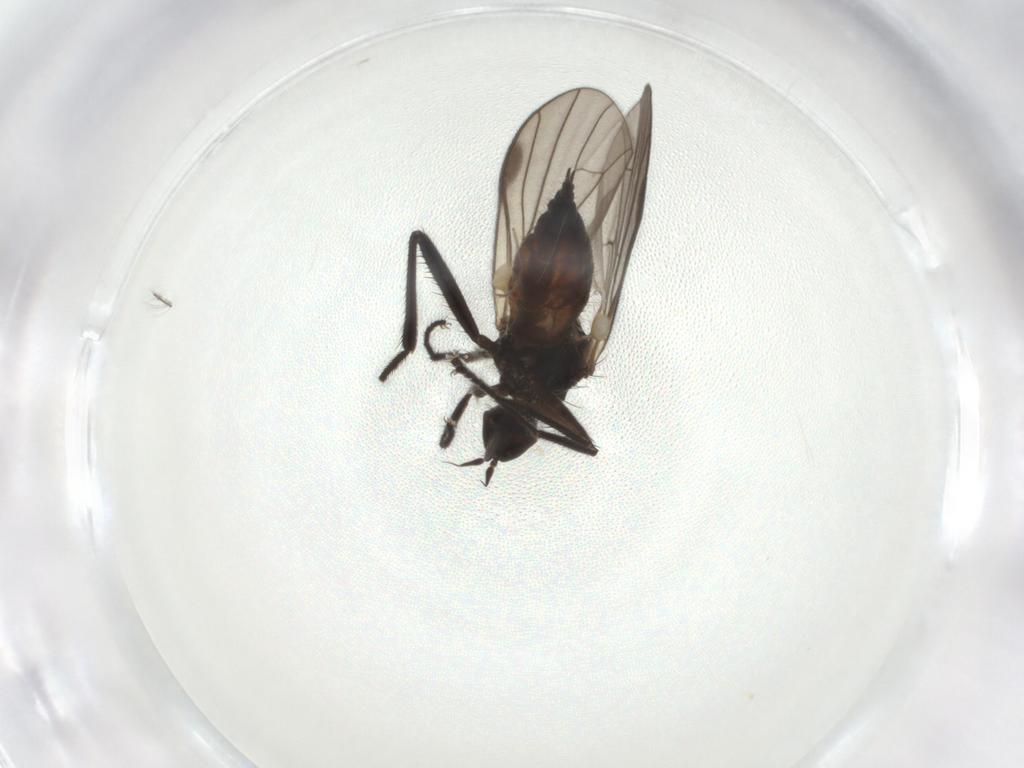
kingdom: Animalia
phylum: Arthropoda
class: Insecta
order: Diptera
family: Hybotidae
